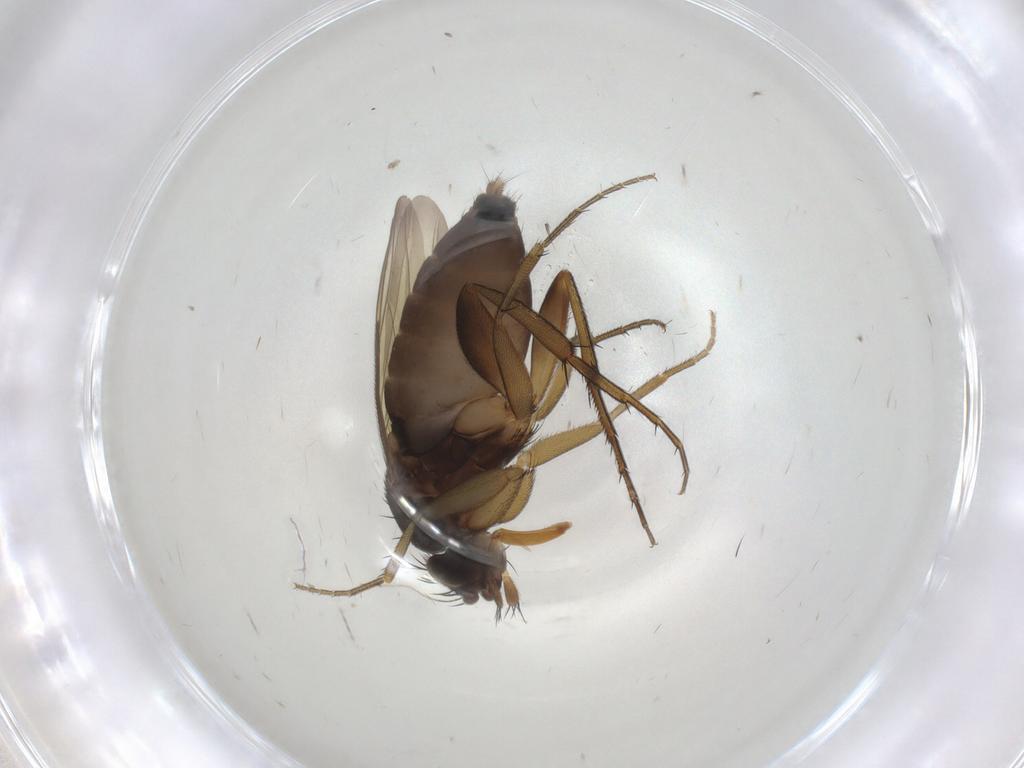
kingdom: Animalia
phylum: Arthropoda
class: Insecta
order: Diptera
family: Phoridae
